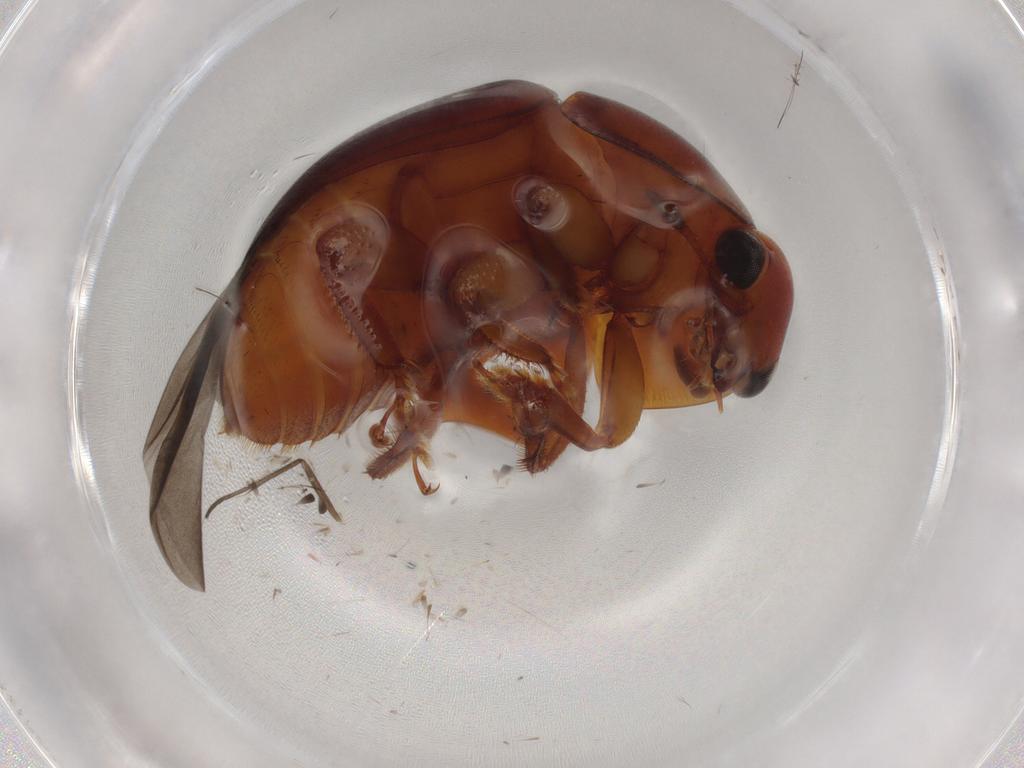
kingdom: Animalia
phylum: Arthropoda
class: Insecta
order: Coleoptera
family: Nitidulidae
